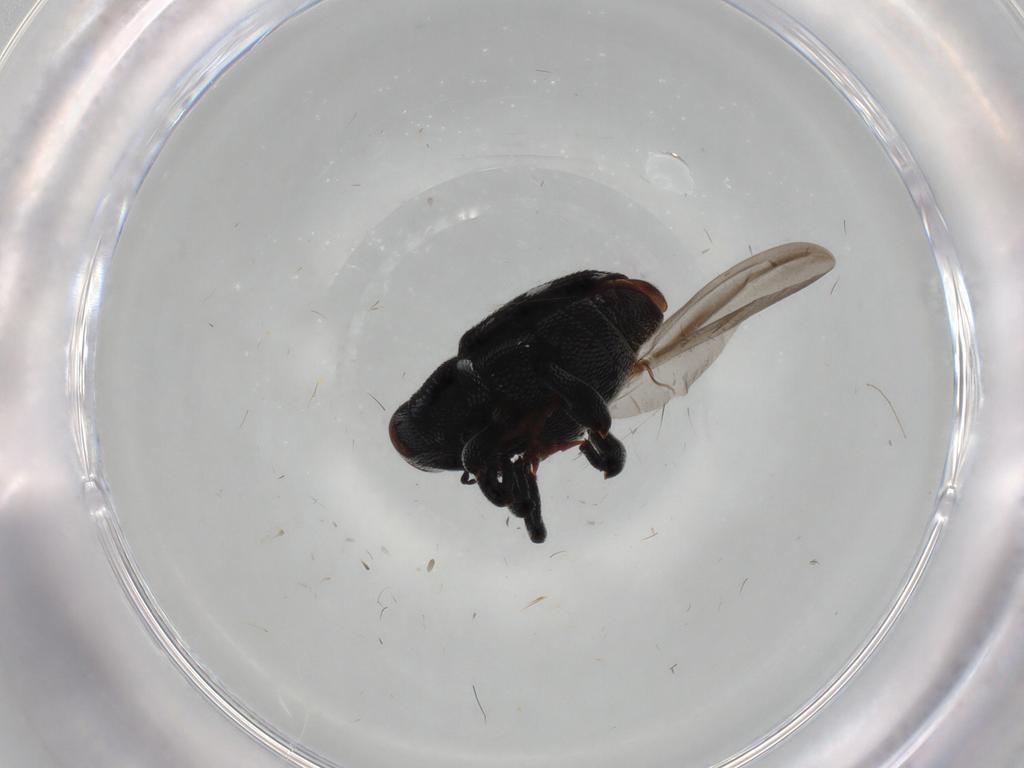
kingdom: Animalia
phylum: Arthropoda
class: Insecta
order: Coleoptera
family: Curculionidae
